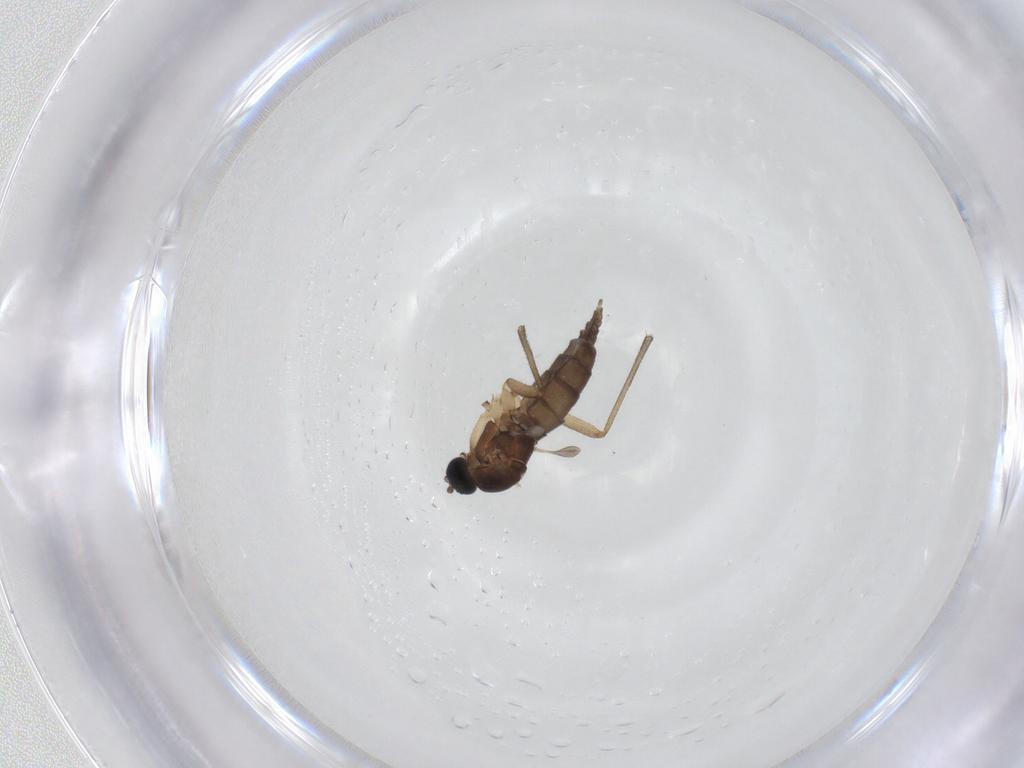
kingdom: Animalia
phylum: Arthropoda
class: Insecta
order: Diptera
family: Sciaridae
